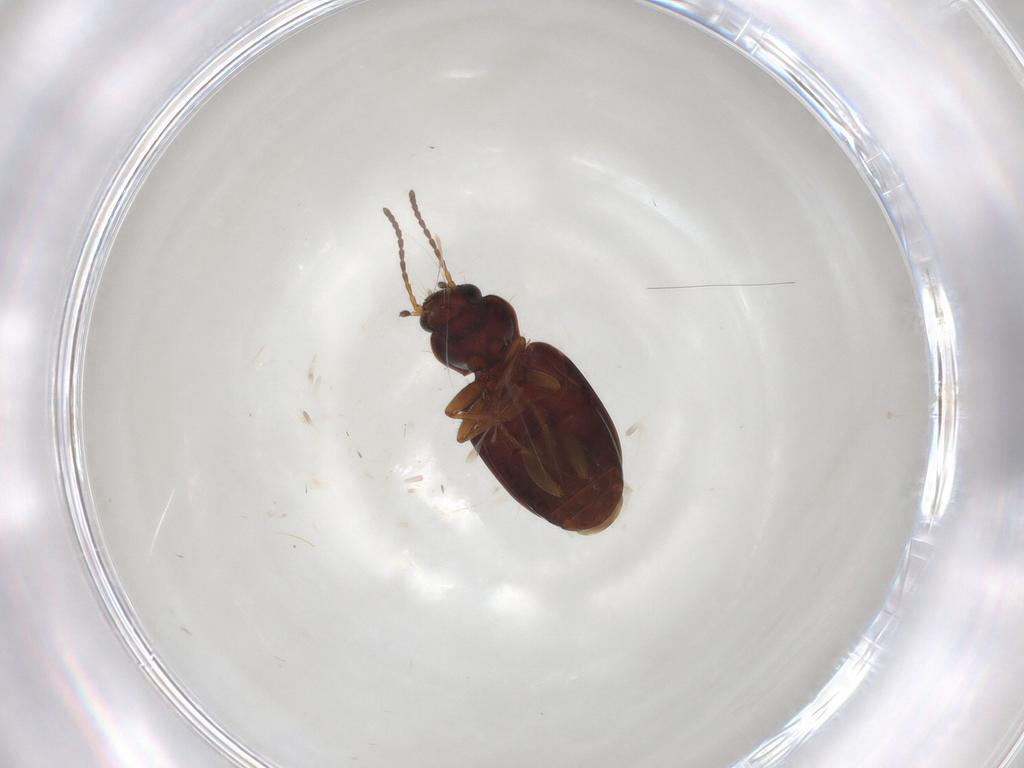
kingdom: Animalia
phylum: Arthropoda
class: Insecta
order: Coleoptera
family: Carabidae
